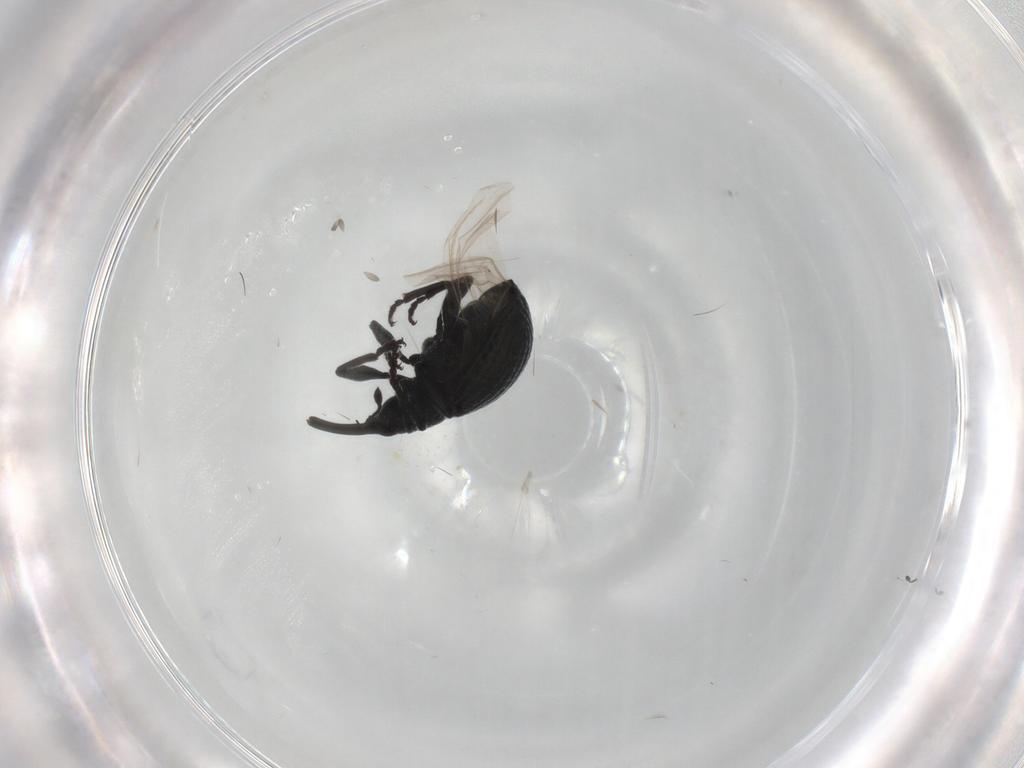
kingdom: Animalia
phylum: Arthropoda
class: Insecta
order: Coleoptera
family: Brentidae
